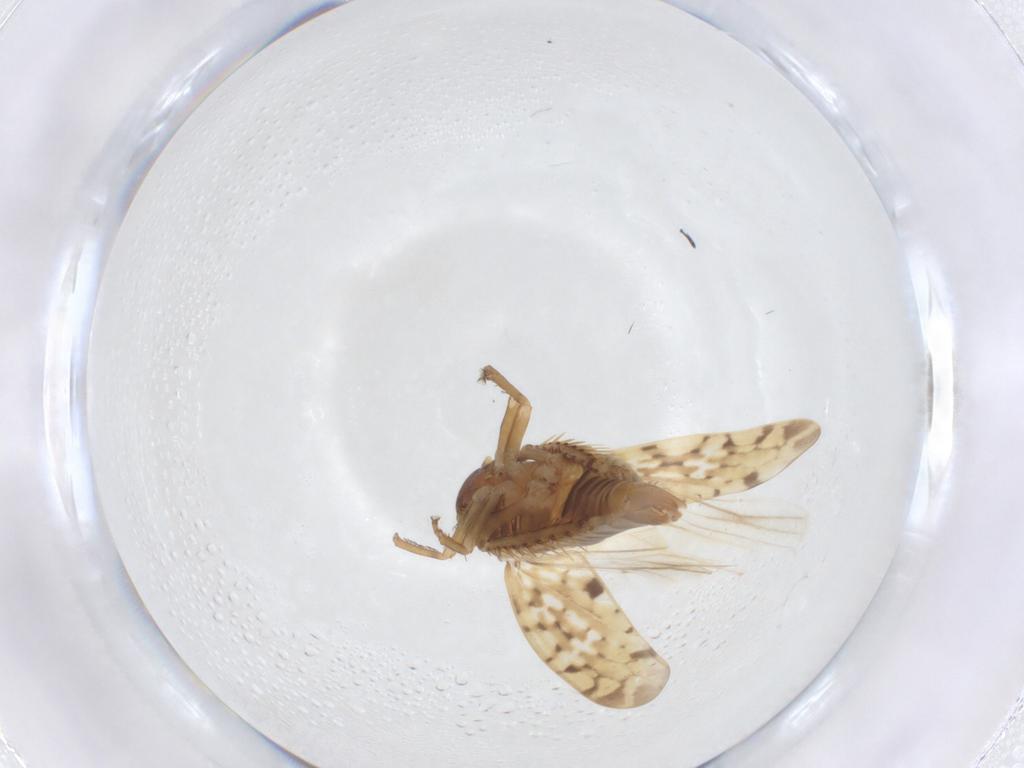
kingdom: Animalia
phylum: Arthropoda
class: Insecta
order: Hemiptera
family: Cicadellidae
